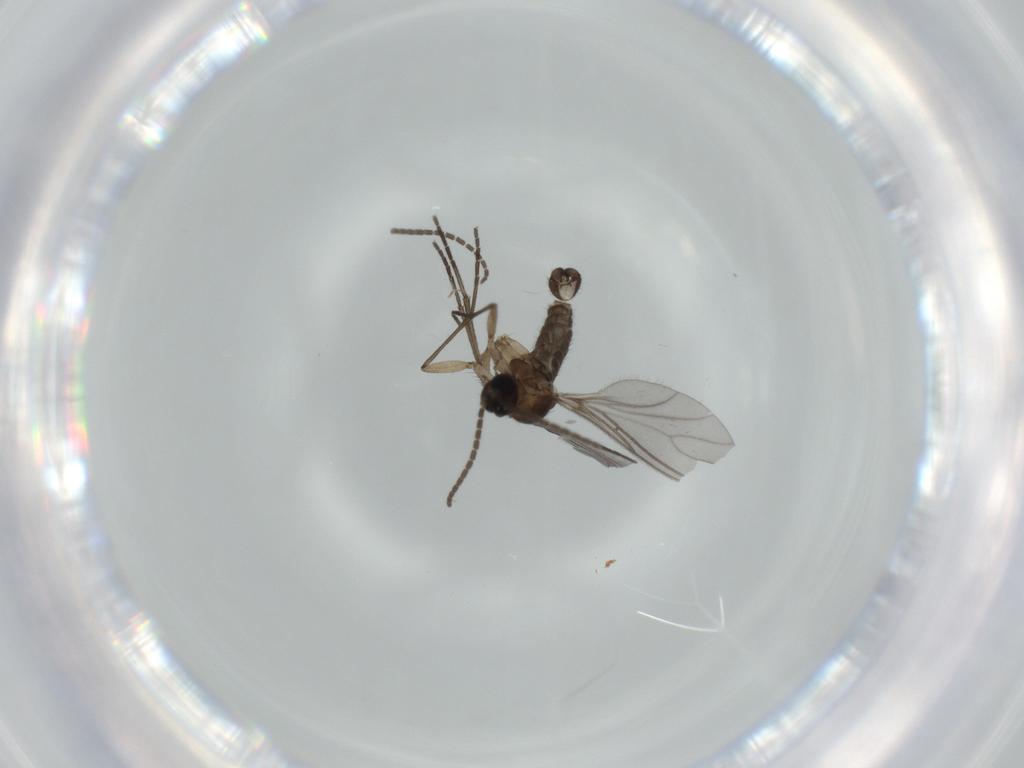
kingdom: Animalia
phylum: Arthropoda
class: Insecta
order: Diptera
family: Sciaridae
